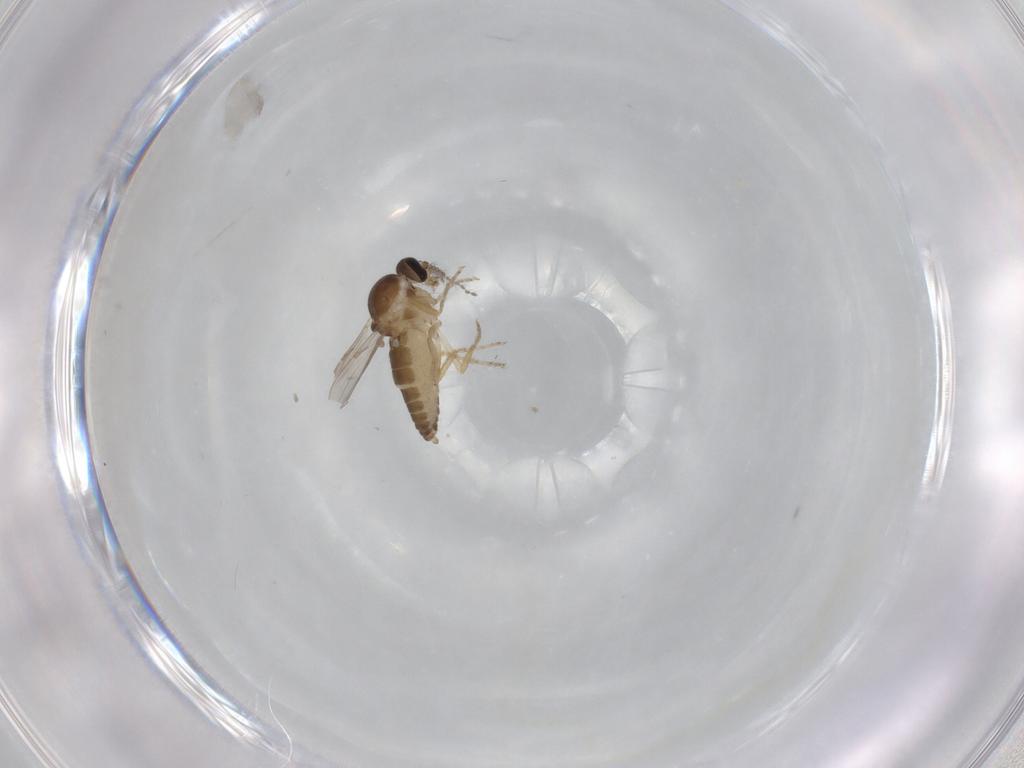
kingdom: Animalia
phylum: Arthropoda
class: Insecta
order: Diptera
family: Ceratopogonidae
